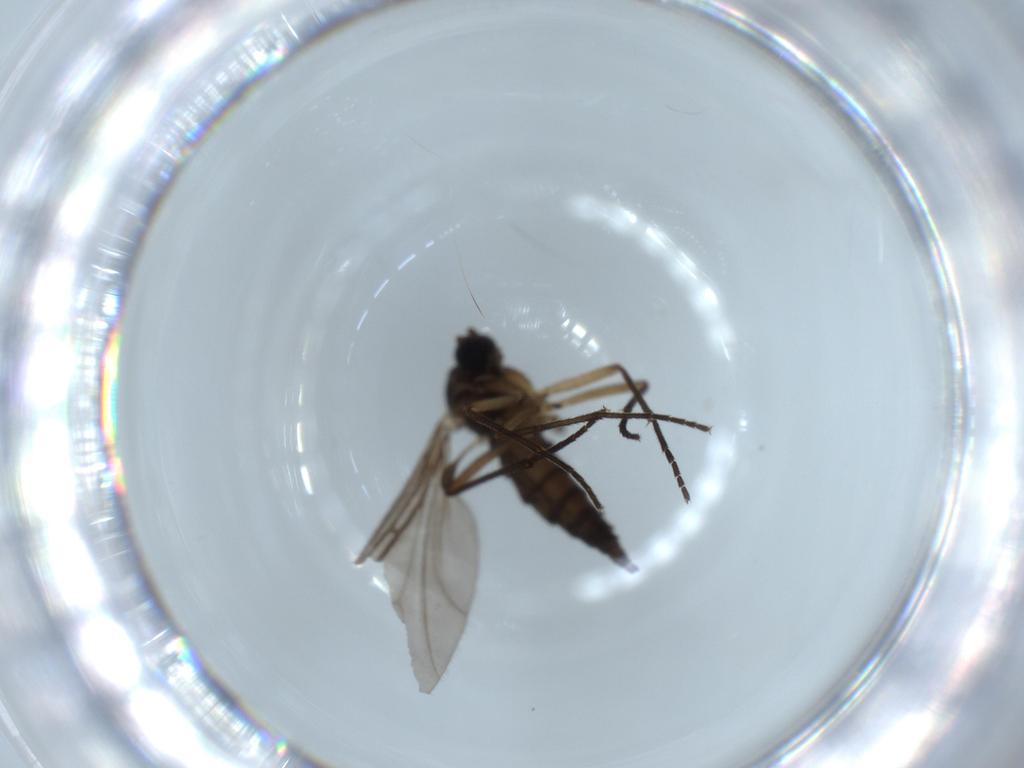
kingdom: Animalia
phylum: Arthropoda
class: Insecta
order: Diptera
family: Sciaridae
